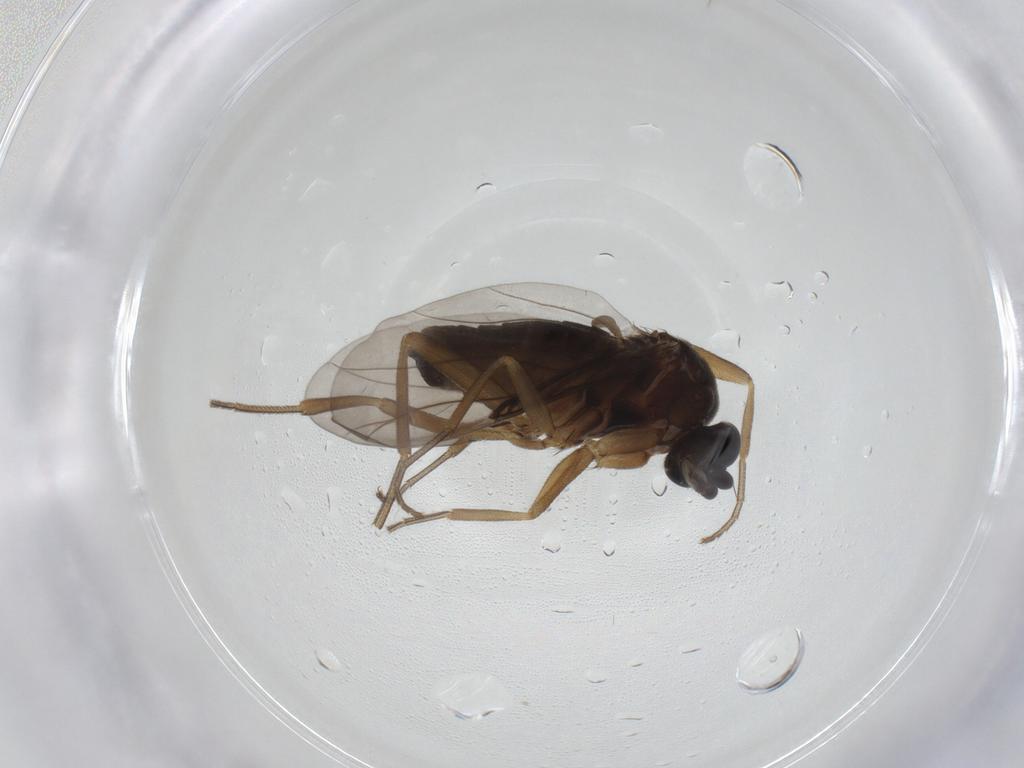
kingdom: Animalia
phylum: Arthropoda
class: Insecta
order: Diptera
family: Phoridae
